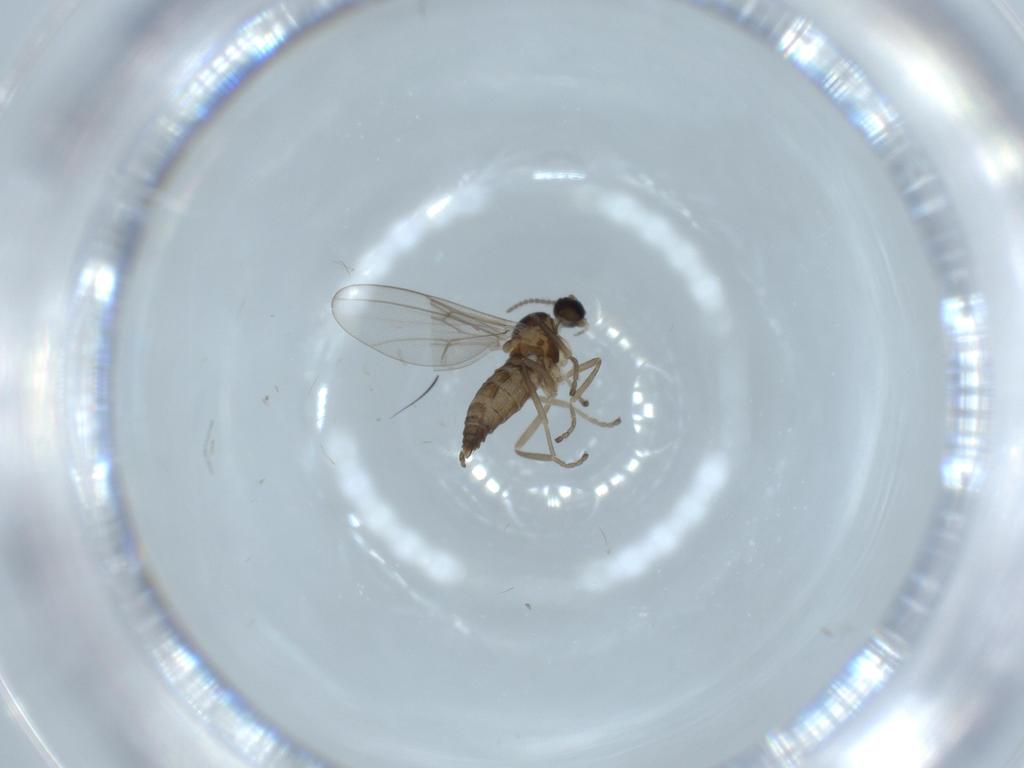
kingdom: Animalia
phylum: Arthropoda
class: Insecta
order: Diptera
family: Cecidomyiidae
